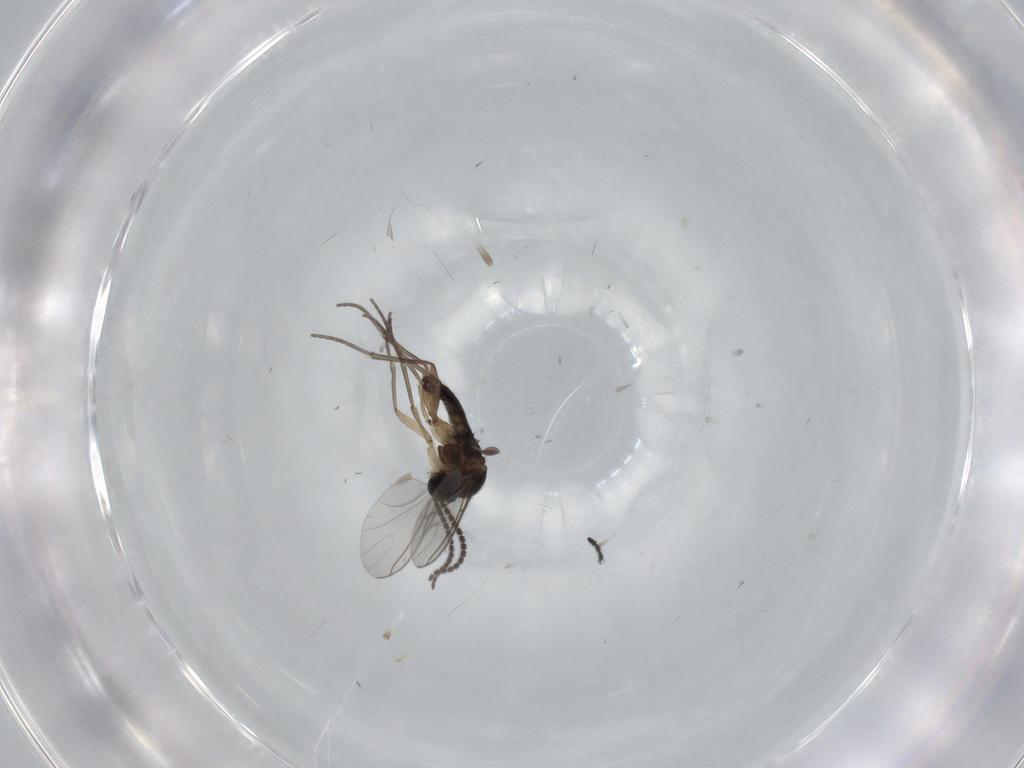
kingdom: Animalia
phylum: Arthropoda
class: Insecta
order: Diptera
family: Sciaridae
